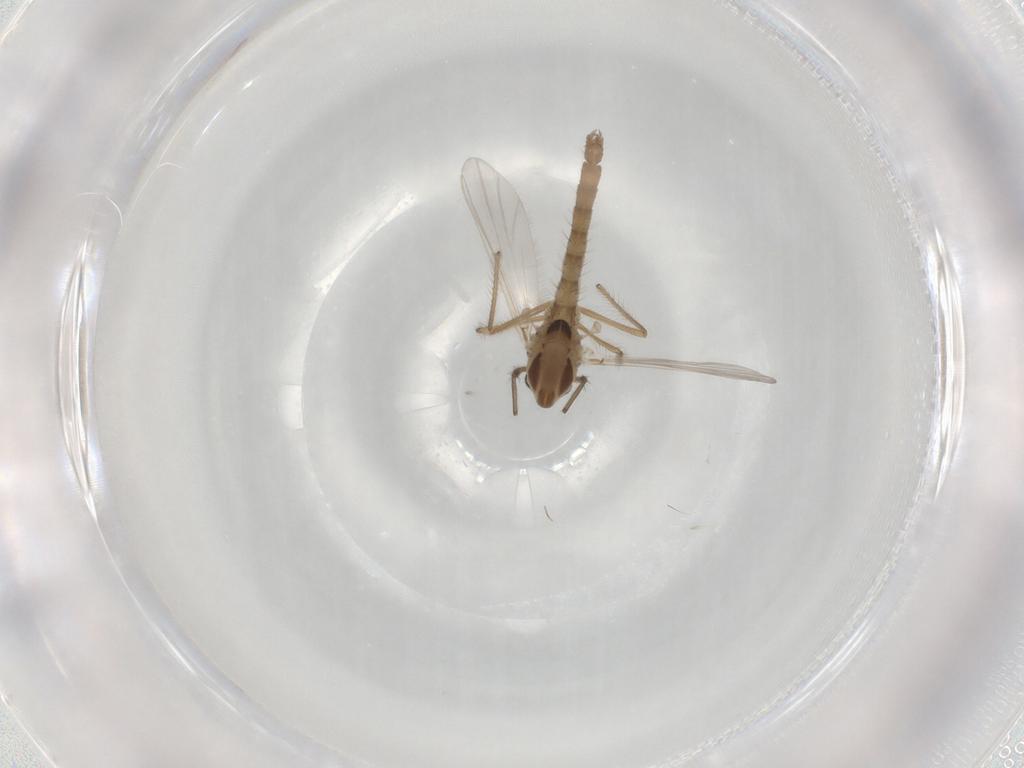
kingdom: Animalia
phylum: Arthropoda
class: Insecta
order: Diptera
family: Chironomidae
